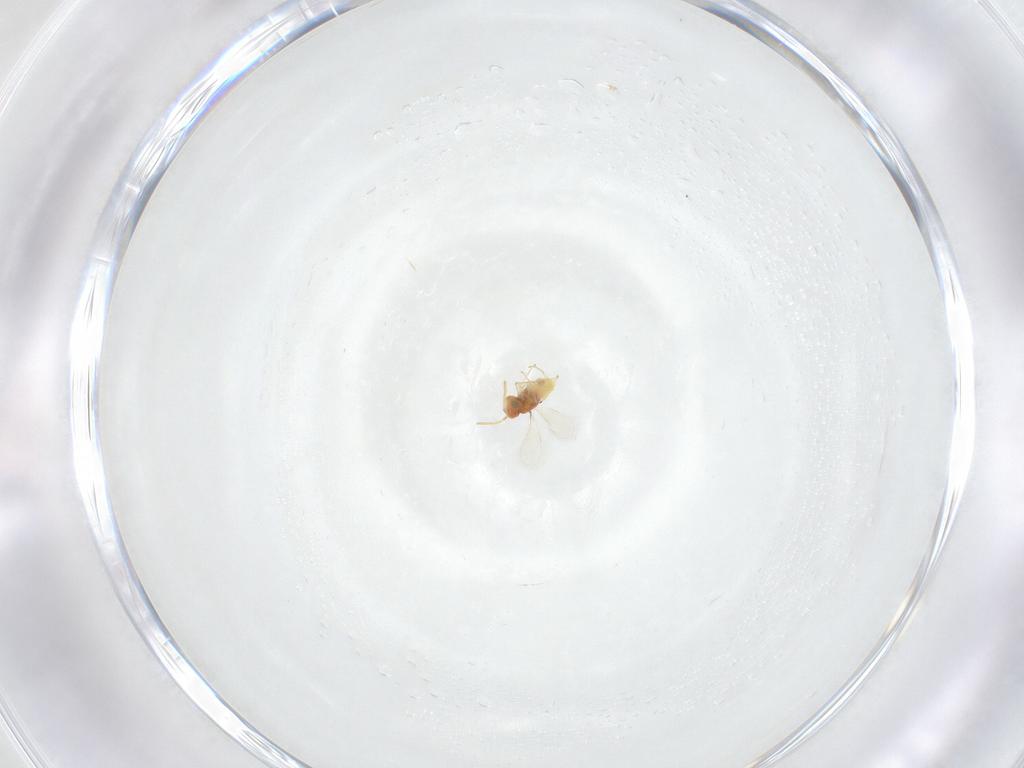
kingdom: Animalia
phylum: Arthropoda
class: Insecta
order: Hymenoptera
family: Aphelinidae
